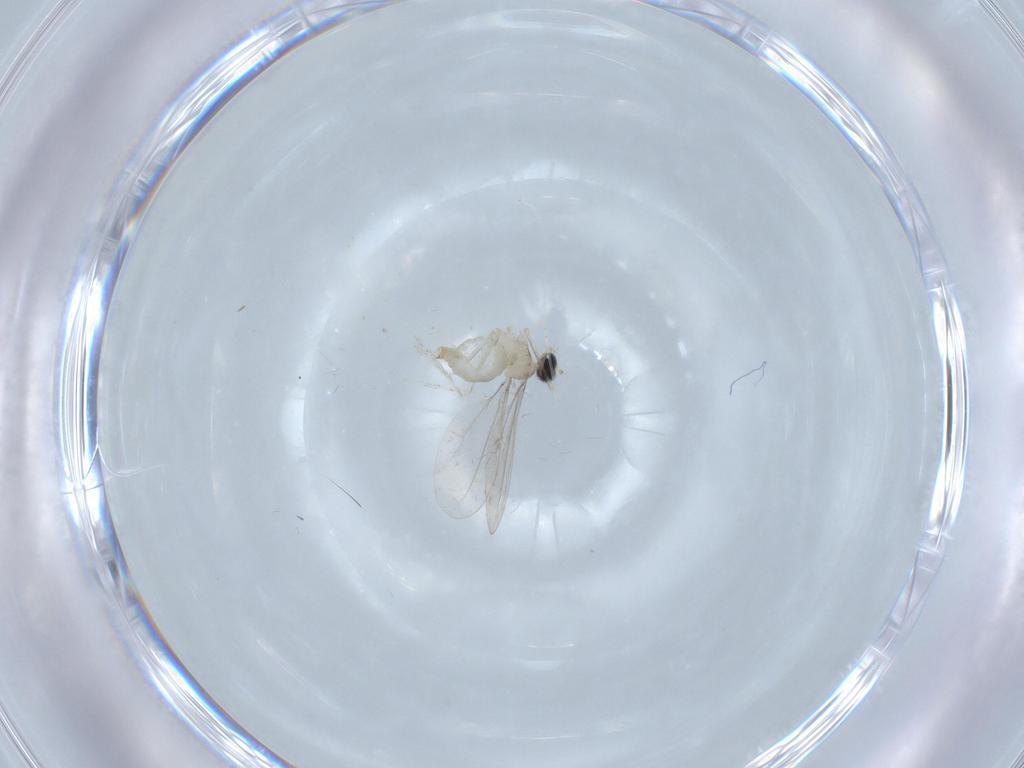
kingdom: Animalia
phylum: Arthropoda
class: Insecta
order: Diptera
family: Cecidomyiidae
